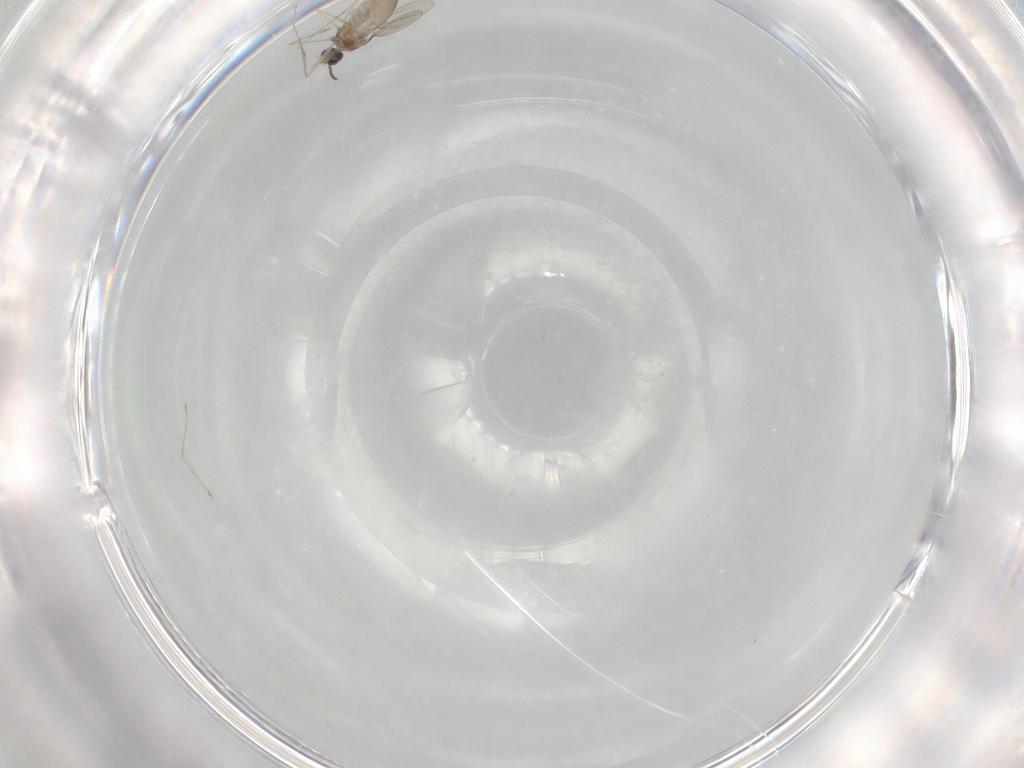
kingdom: Animalia
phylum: Arthropoda
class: Insecta
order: Diptera
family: Cecidomyiidae
